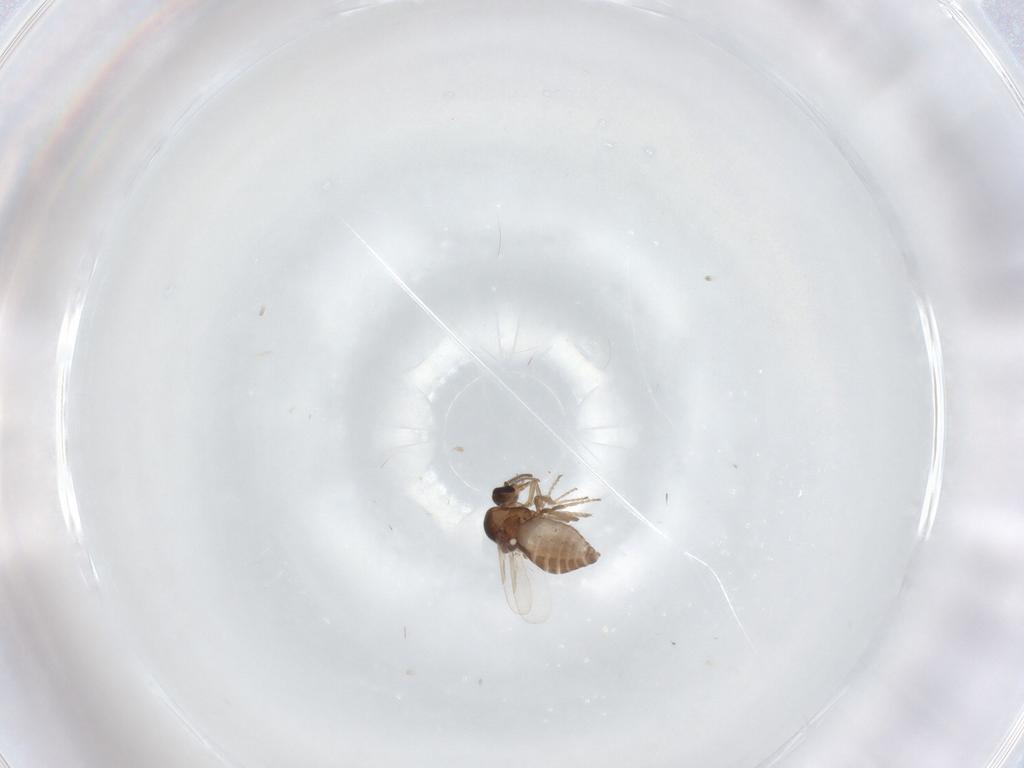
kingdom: Animalia
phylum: Arthropoda
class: Insecta
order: Diptera
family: Ceratopogonidae
